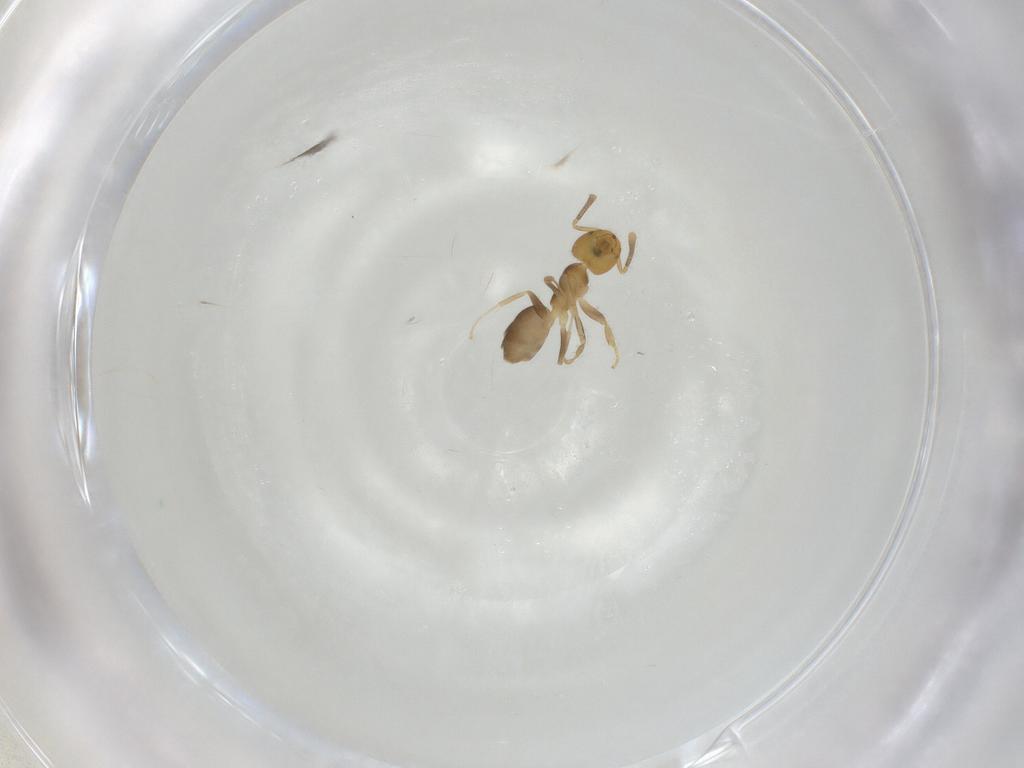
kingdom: Animalia
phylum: Arthropoda
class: Insecta
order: Hymenoptera
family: Formicidae
